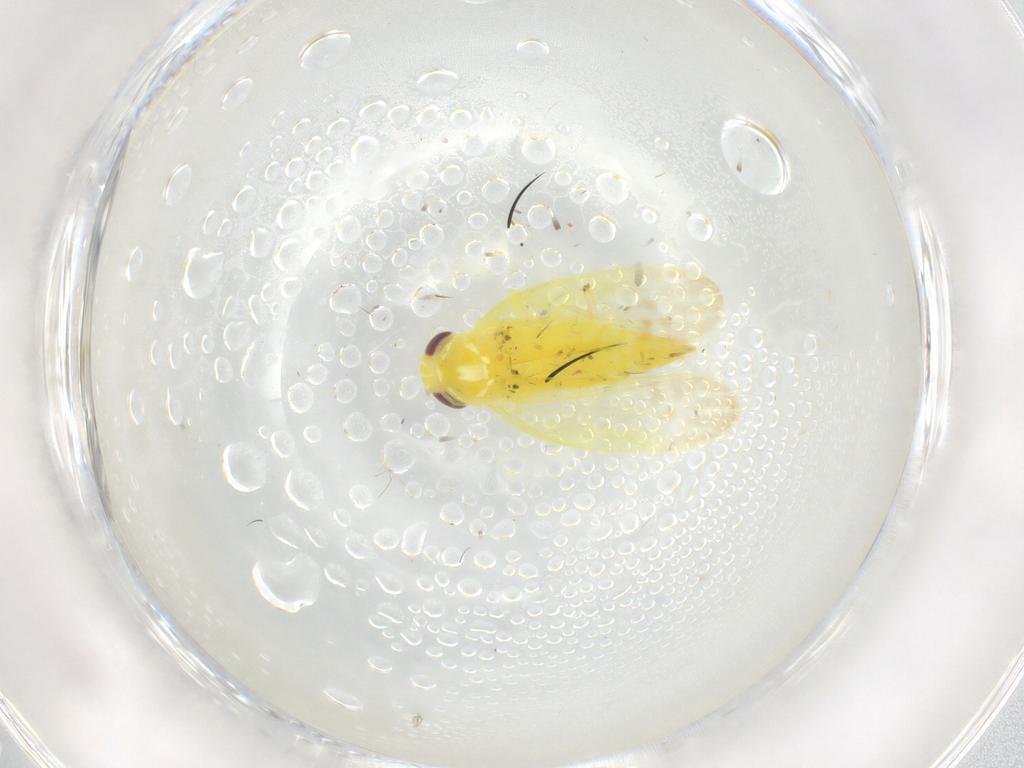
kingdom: Animalia
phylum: Arthropoda
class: Insecta
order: Hemiptera
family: Cicadellidae
